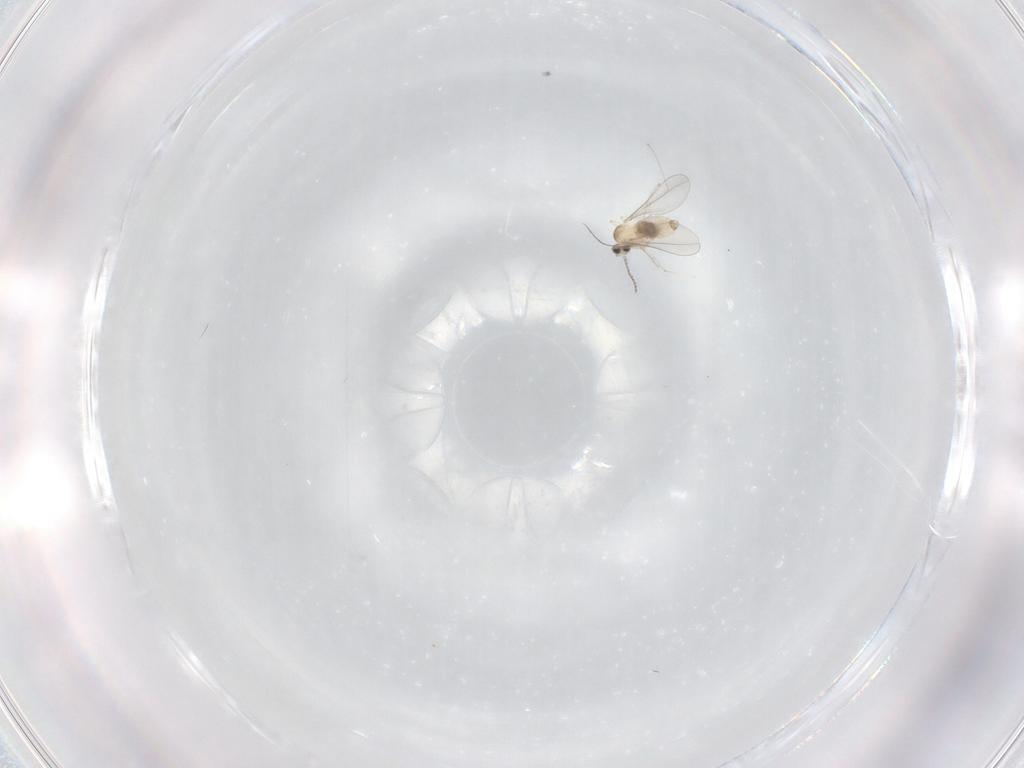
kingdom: Animalia
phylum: Arthropoda
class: Insecta
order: Diptera
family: Cecidomyiidae
